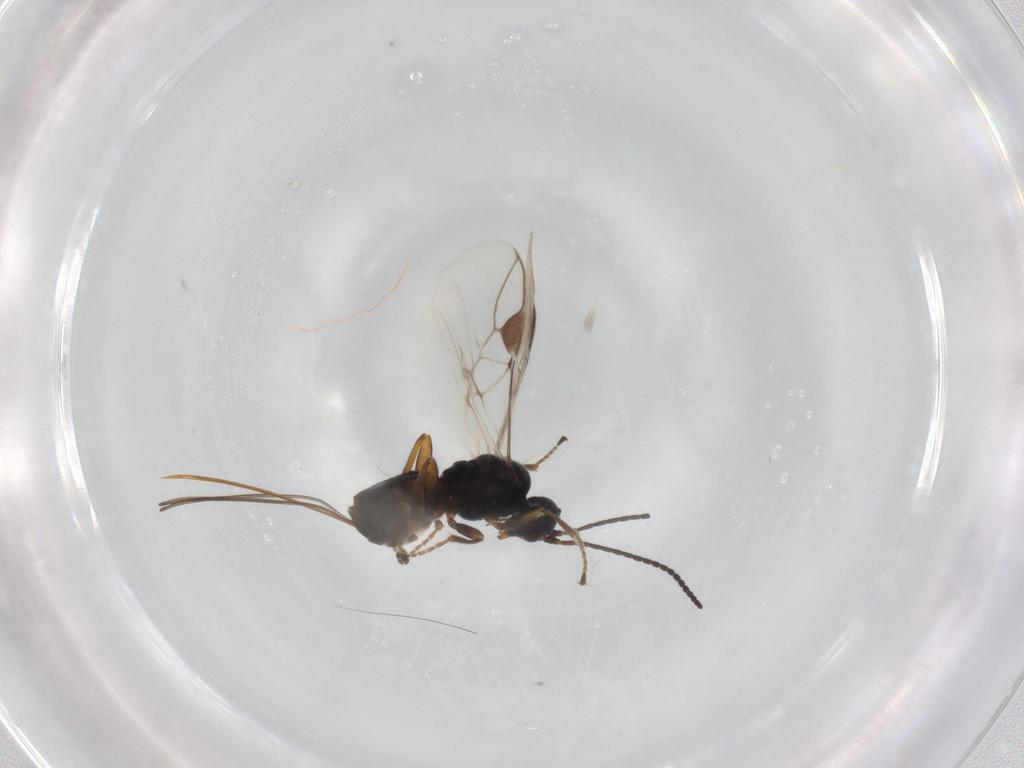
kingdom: Animalia
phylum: Arthropoda
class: Insecta
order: Hymenoptera
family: Braconidae
